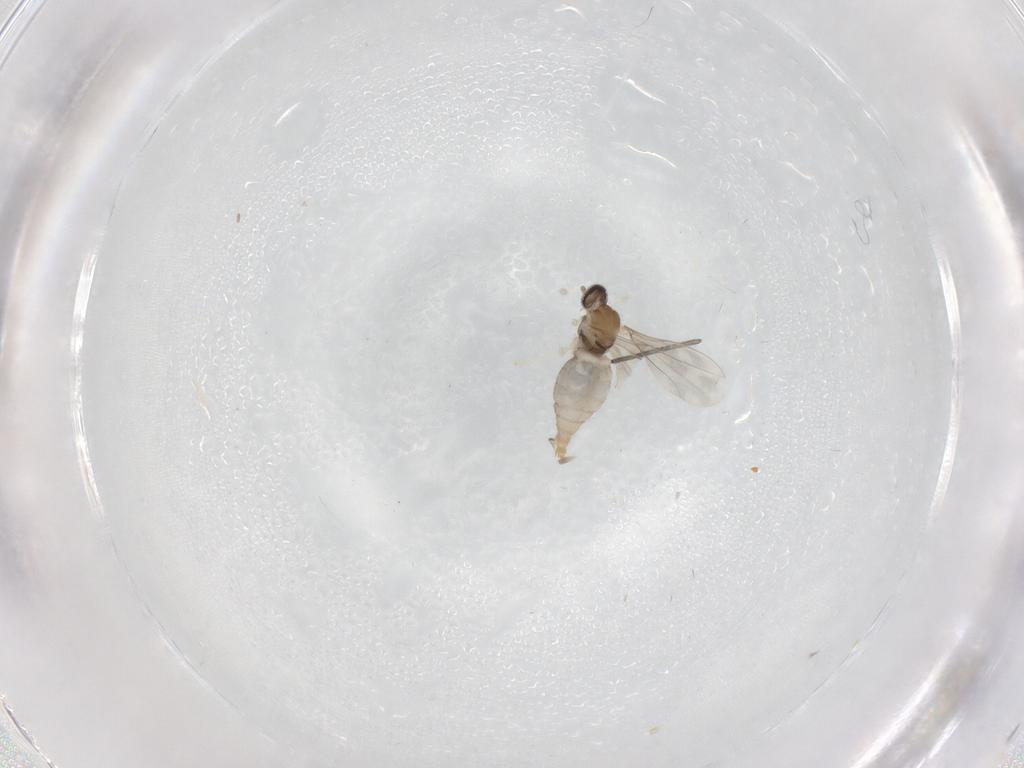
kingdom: Animalia
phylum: Arthropoda
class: Insecta
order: Diptera
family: Sciaridae
